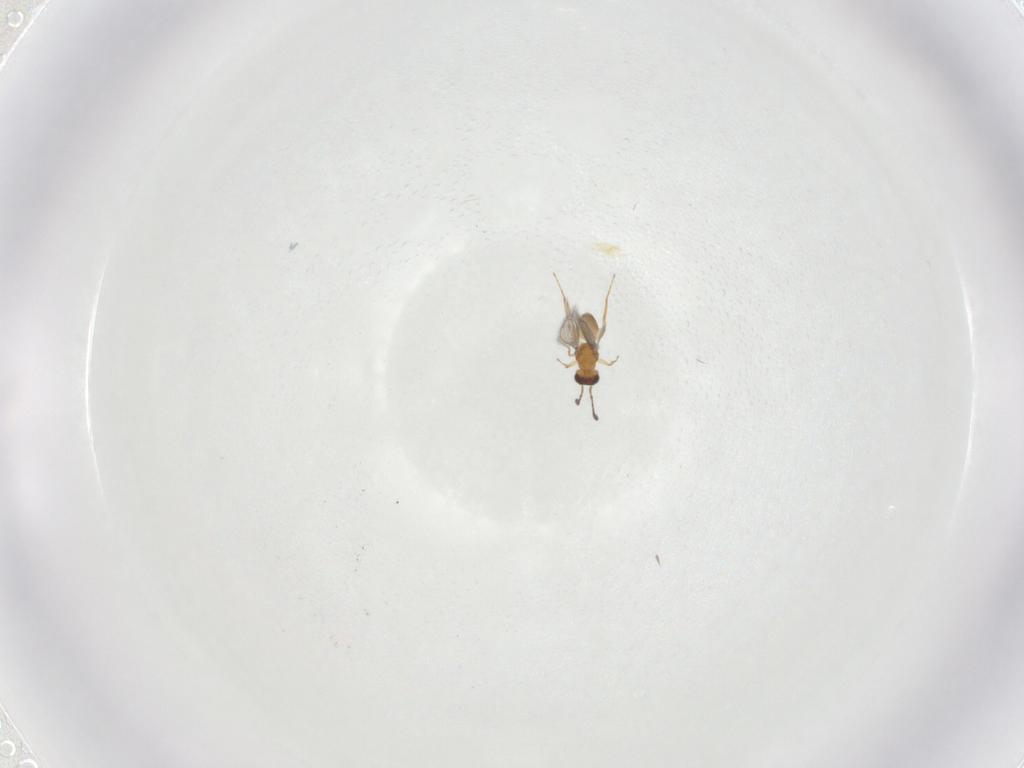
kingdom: Animalia
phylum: Arthropoda
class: Insecta
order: Hymenoptera
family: Mymaridae
